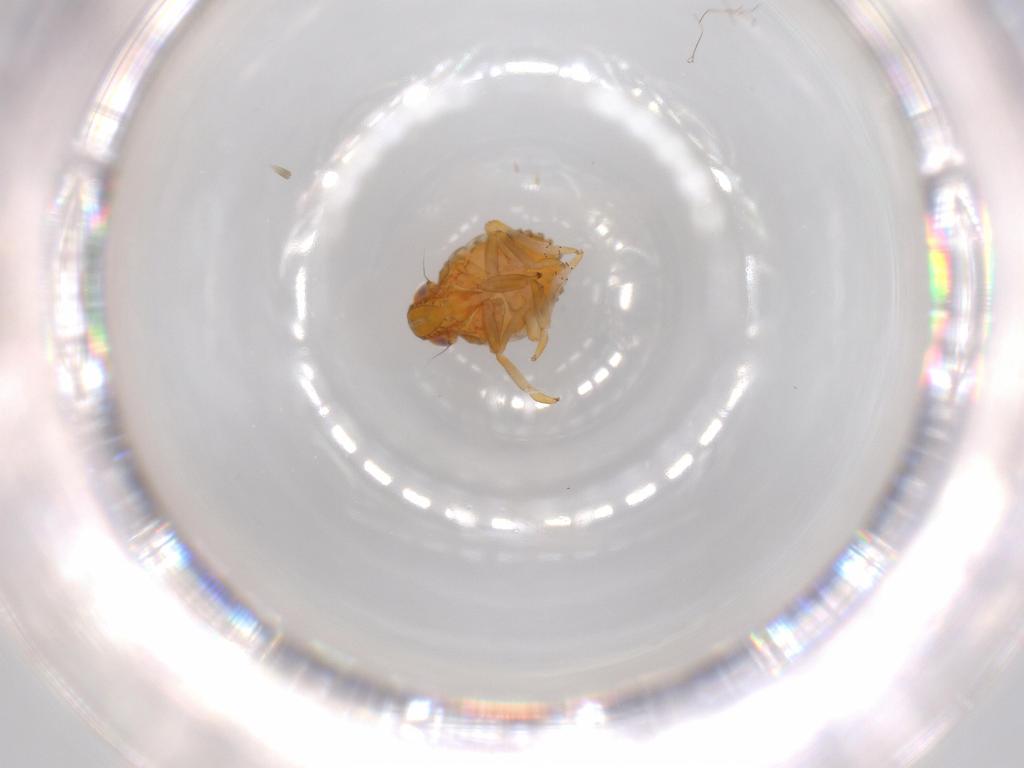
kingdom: Animalia
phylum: Arthropoda
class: Insecta
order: Hemiptera
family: Issidae
